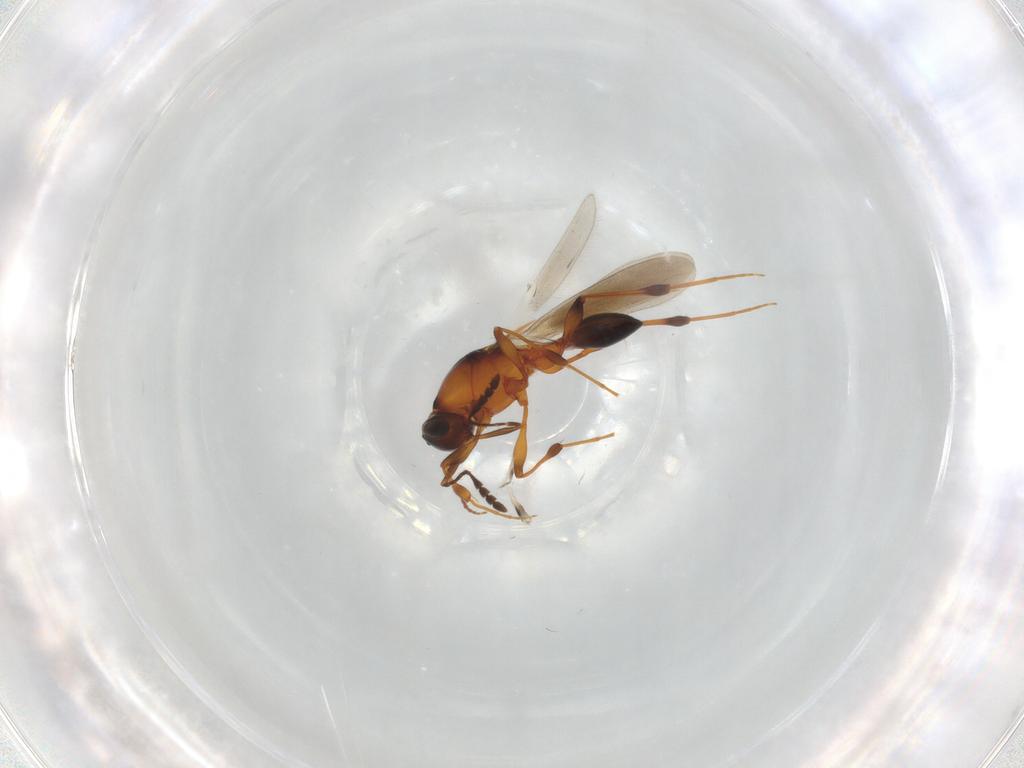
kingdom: Animalia
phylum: Arthropoda
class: Insecta
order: Hymenoptera
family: Platygastridae
